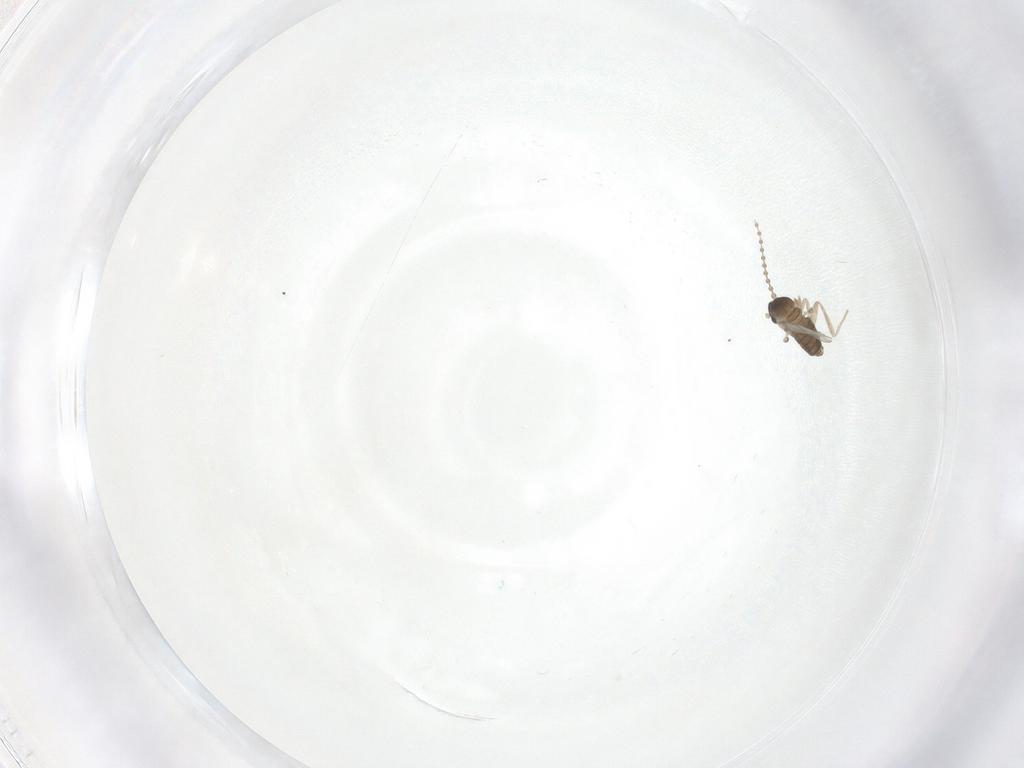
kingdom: Animalia
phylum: Arthropoda
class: Insecta
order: Diptera
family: Cecidomyiidae
